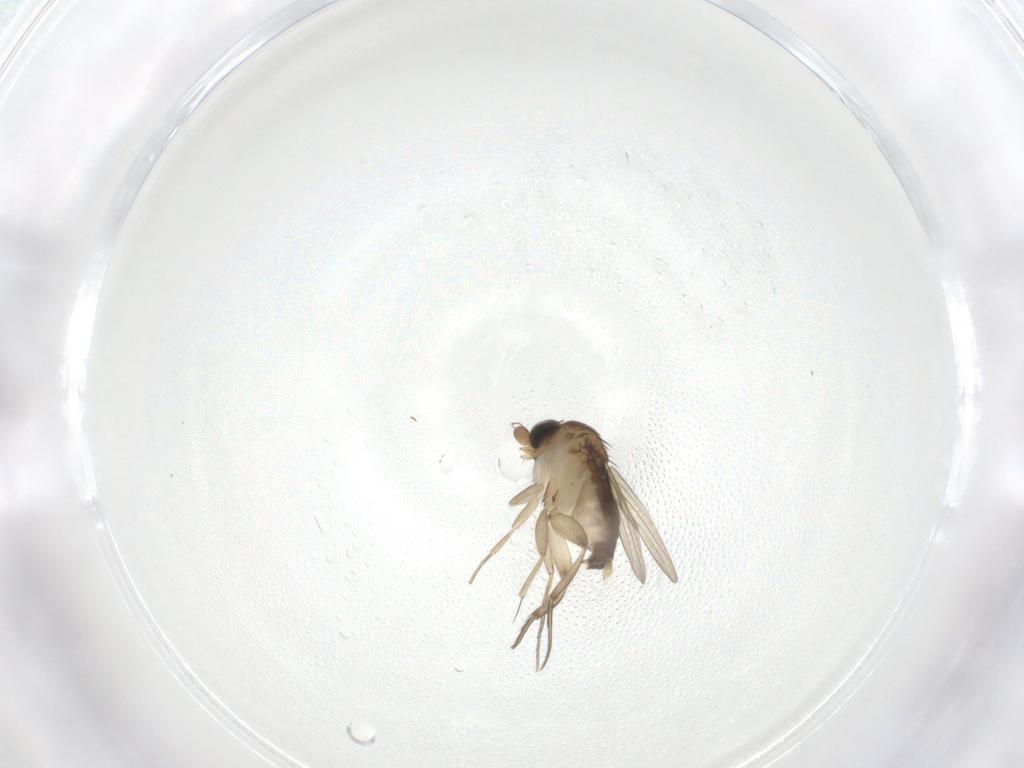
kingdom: Animalia
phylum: Arthropoda
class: Insecta
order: Diptera
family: Phoridae
